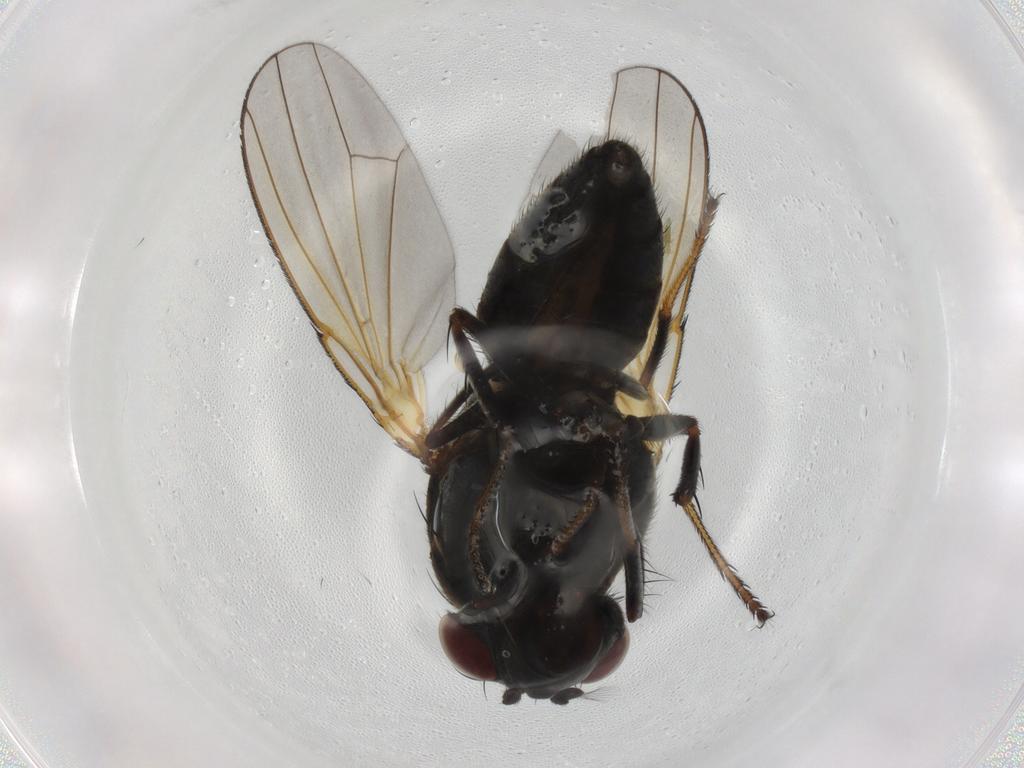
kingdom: Animalia
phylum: Arthropoda
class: Insecta
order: Diptera
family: Ephydridae
